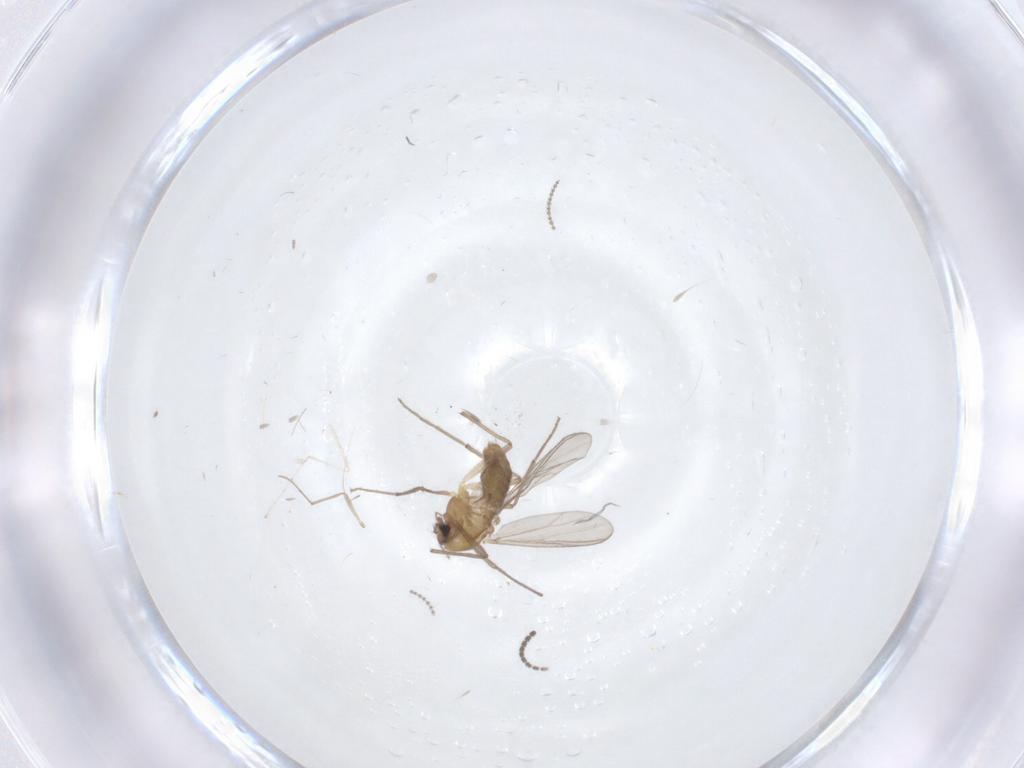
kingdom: Animalia
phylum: Arthropoda
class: Insecta
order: Diptera
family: Chironomidae
